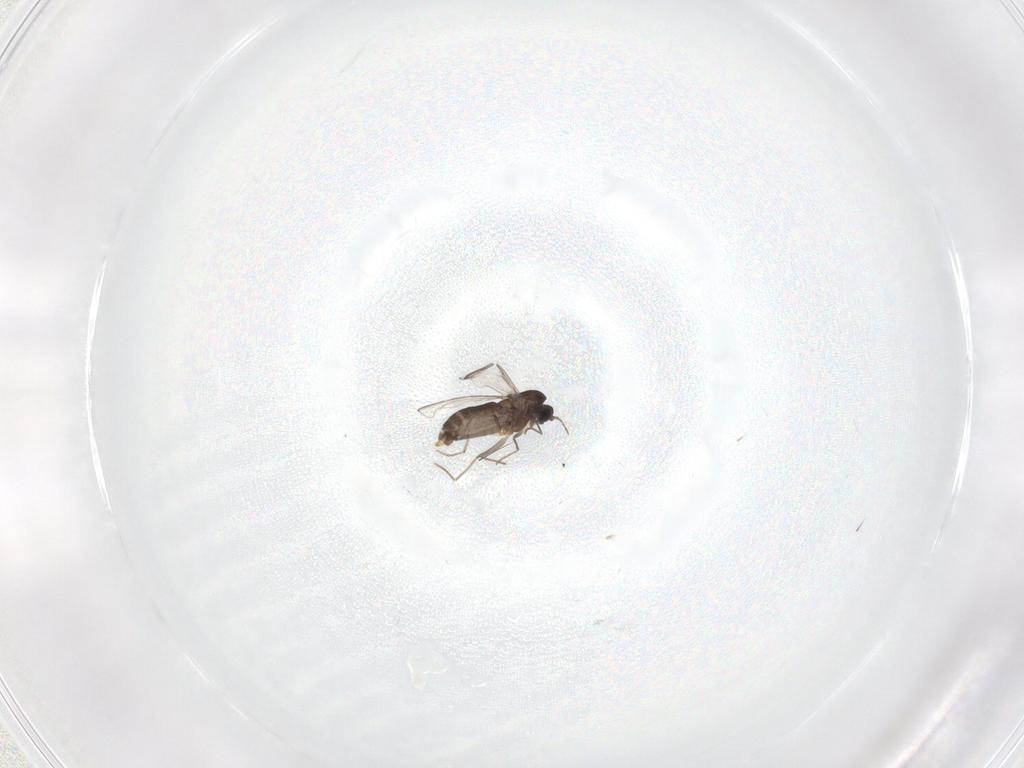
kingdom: Animalia
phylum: Arthropoda
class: Insecta
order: Diptera
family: Chironomidae
